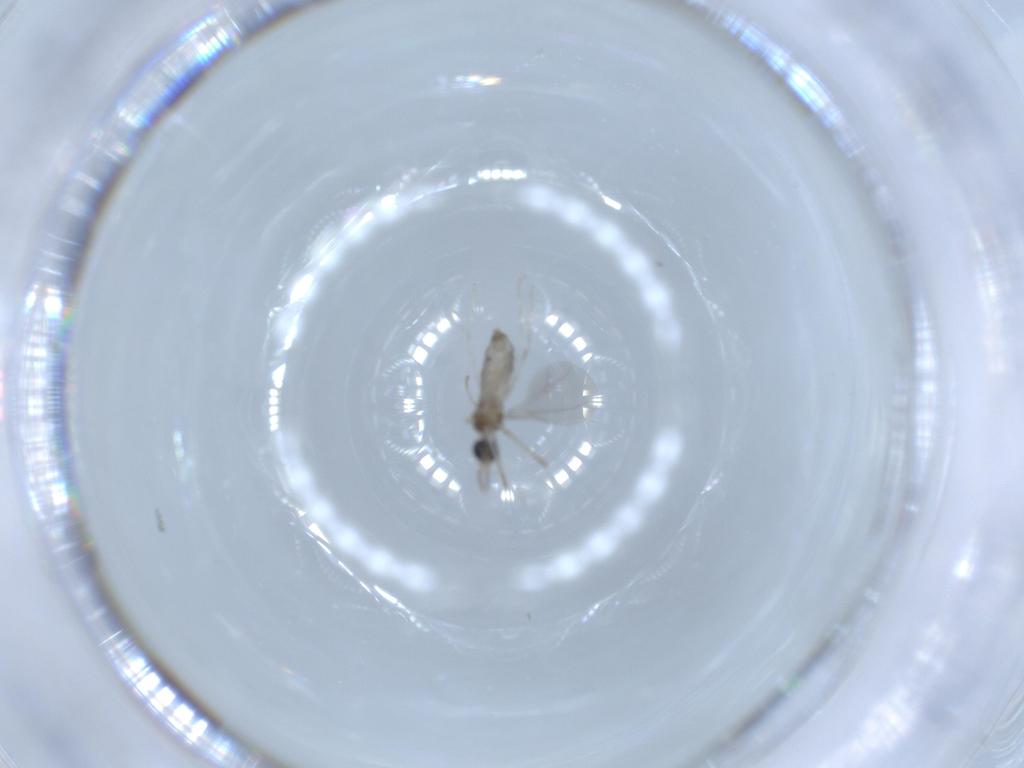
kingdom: Animalia
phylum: Arthropoda
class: Insecta
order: Diptera
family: Chironomidae
